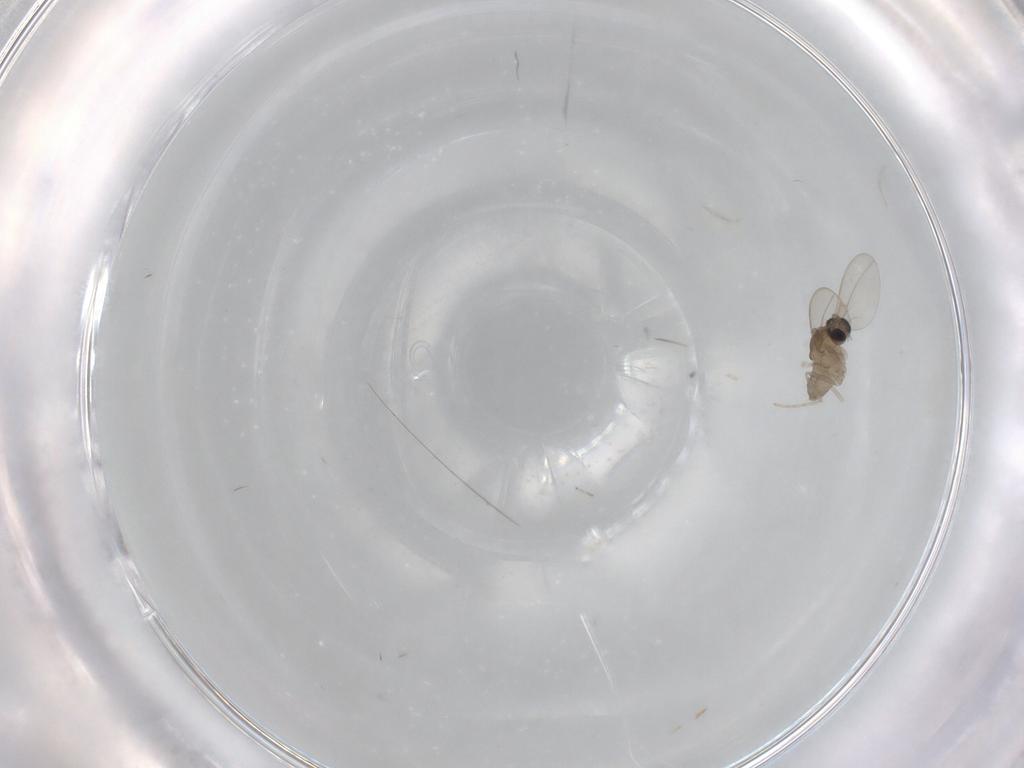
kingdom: Animalia
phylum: Arthropoda
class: Insecta
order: Diptera
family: Cecidomyiidae
